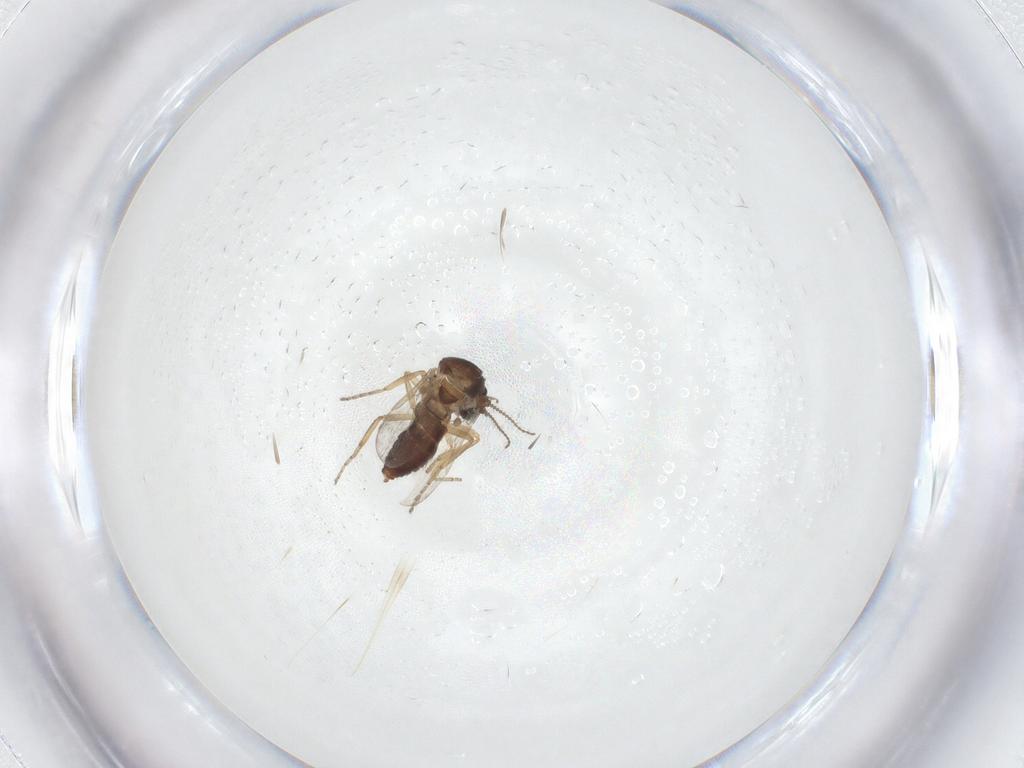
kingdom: Animalia
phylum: Arthropoda
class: Insecta
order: Diptera
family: Ceratopogonidae
